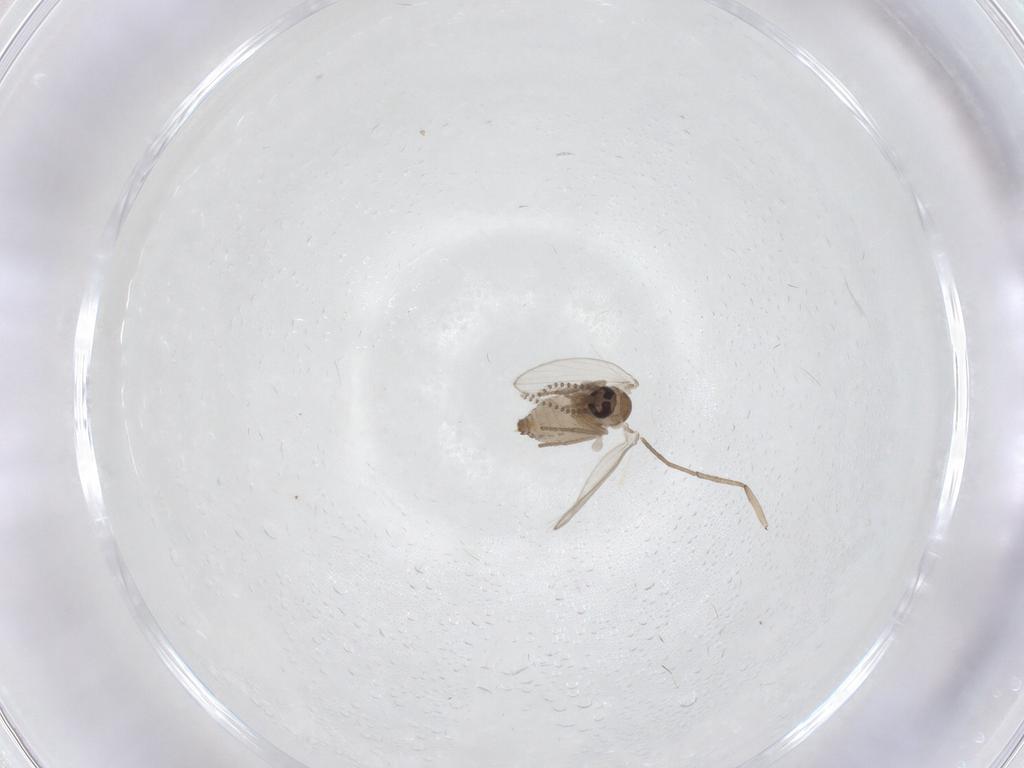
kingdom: Animalia
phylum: Arthropoda
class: Insecta
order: Diptera
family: Psychodidae
